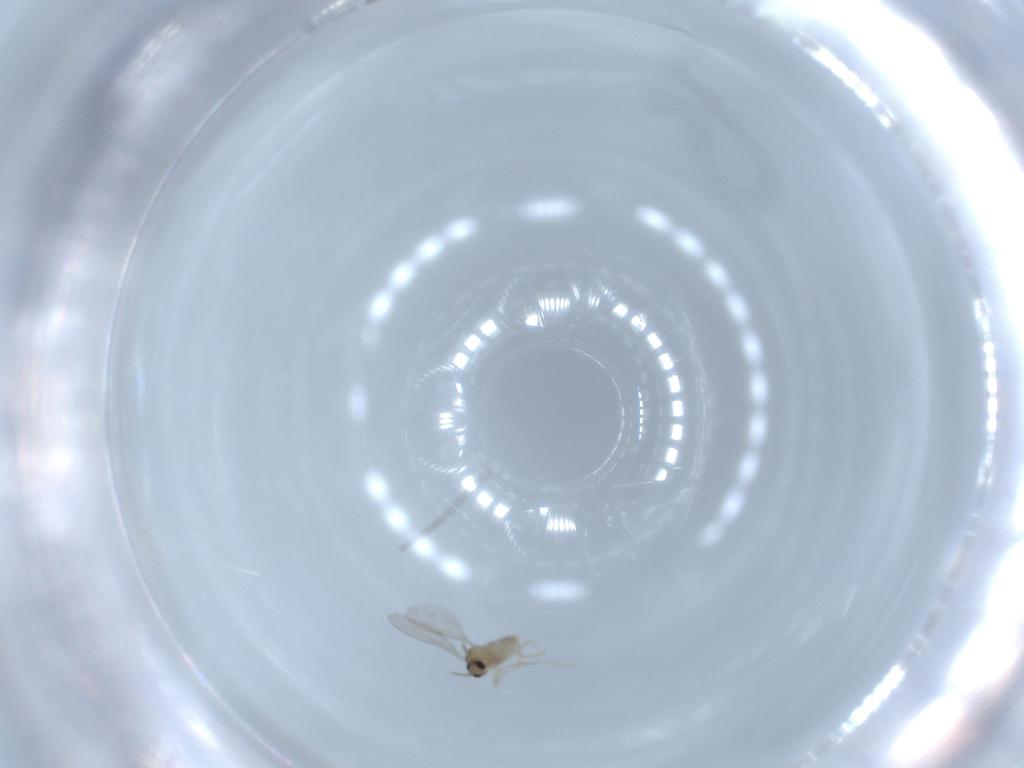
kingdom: Animalia
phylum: Arthropoda
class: Insecta
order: Diptera
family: Cecidomyiidae
